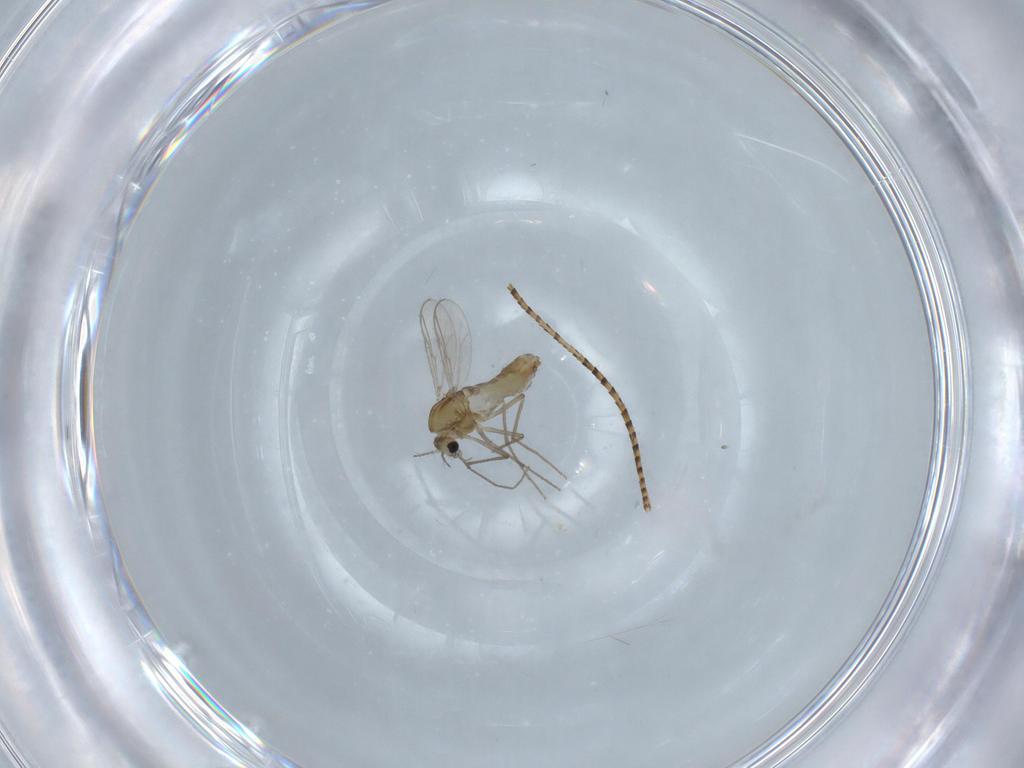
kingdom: Animalia
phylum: Arthropoda
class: Insecta
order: Diptera
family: Chironomidae
